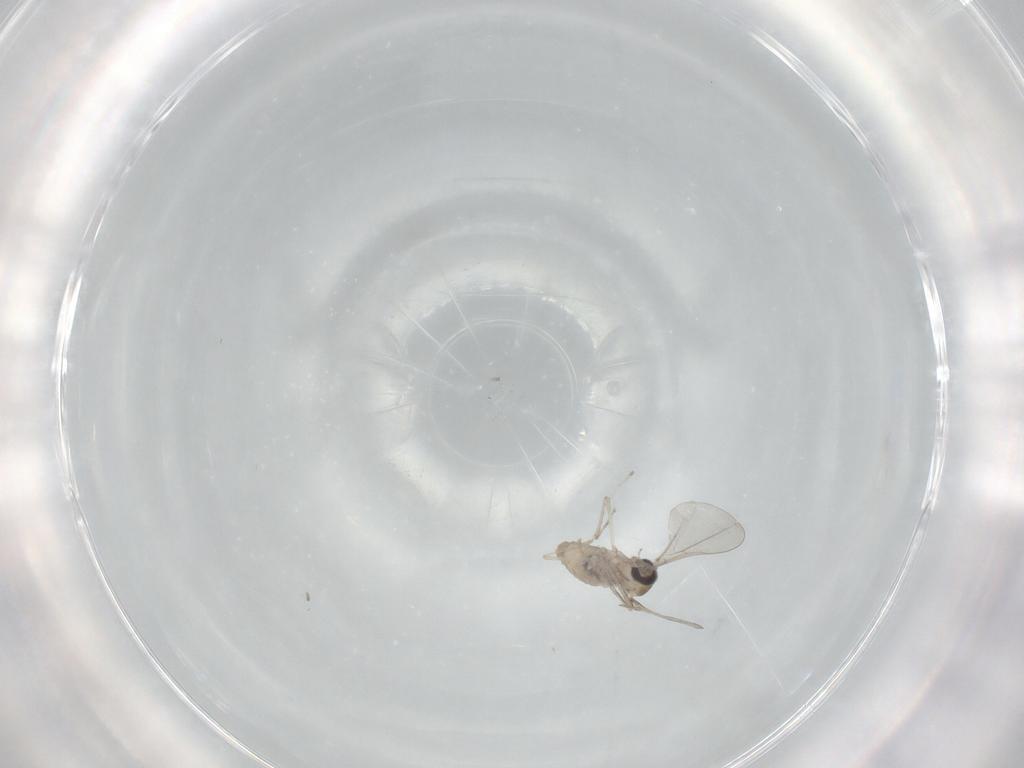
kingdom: Animalia
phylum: Arthropoda
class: Insecta
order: Diptera
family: Cecidomyiidae
